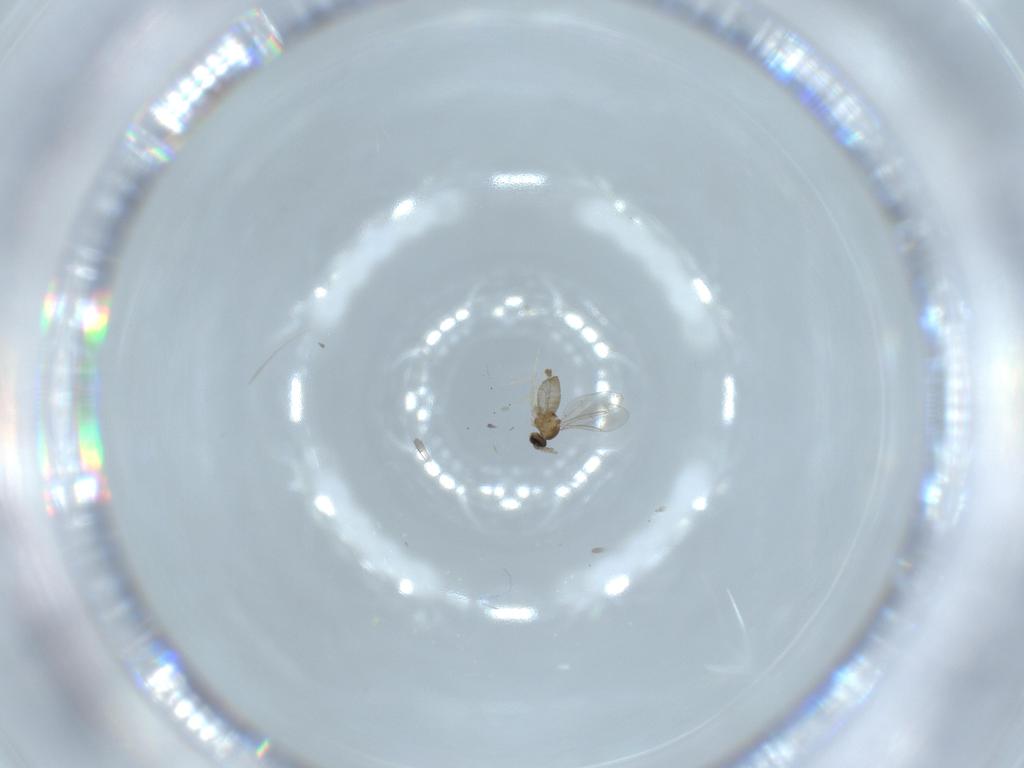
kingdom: Animalia
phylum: Arthropoda
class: Insecta
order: Diptera
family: Cecidomyiidae
